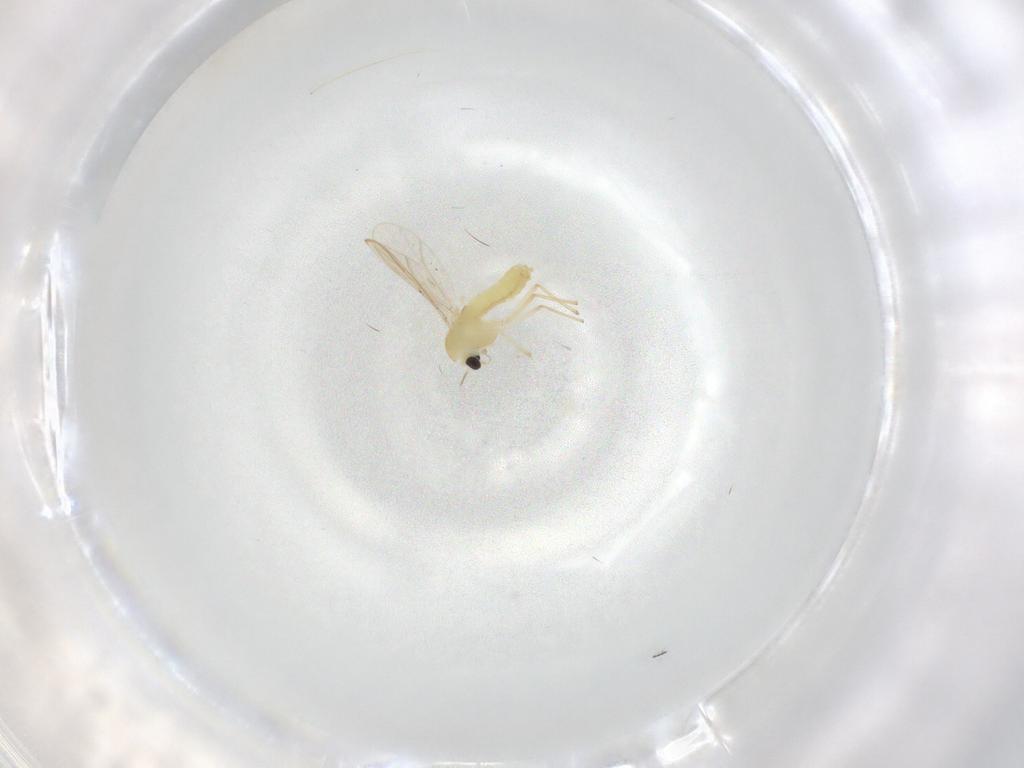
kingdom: Animalia
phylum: Arthropoda
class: Insecta
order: Diptera
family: Chironomidae
